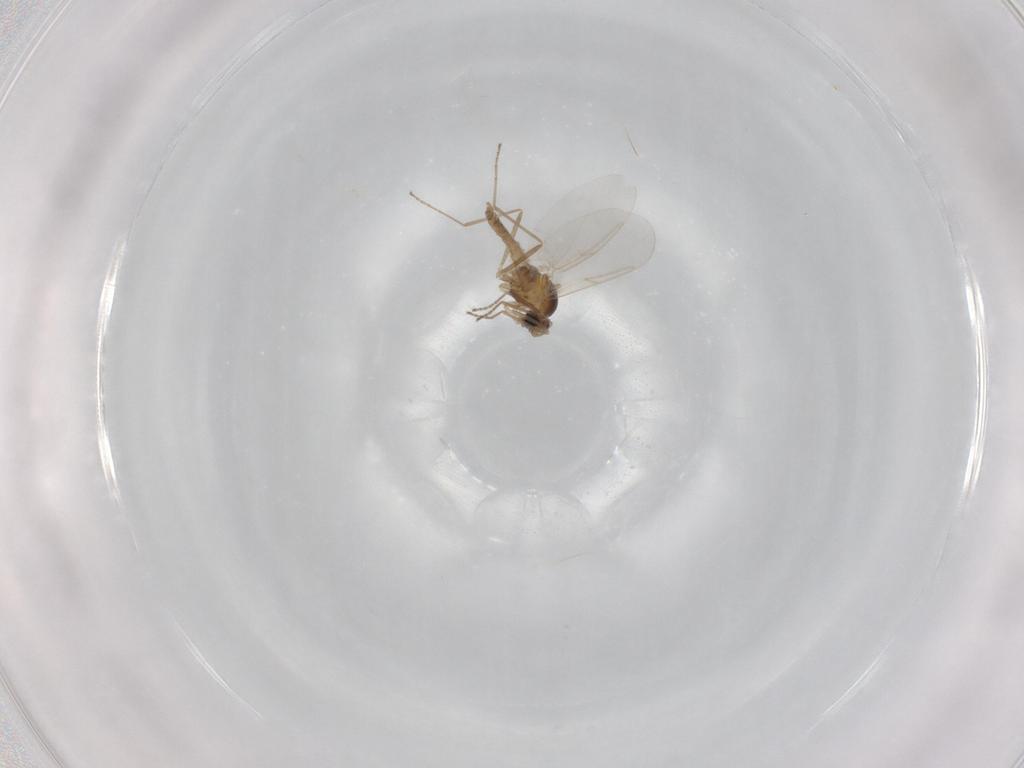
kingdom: Animalia
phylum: Arthropoda
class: Insecta
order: Diptera
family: Cecidomyiidae
